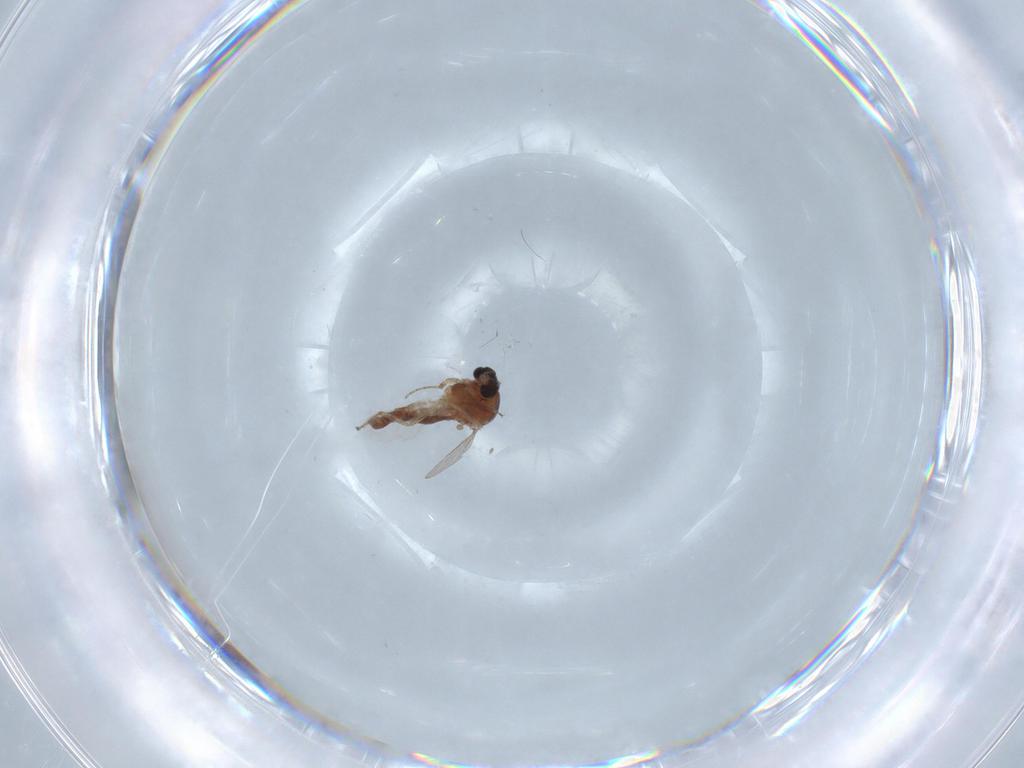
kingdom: Animalia
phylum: Arthropoda
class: Insecta
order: Diptera
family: Ceratopogonidae
